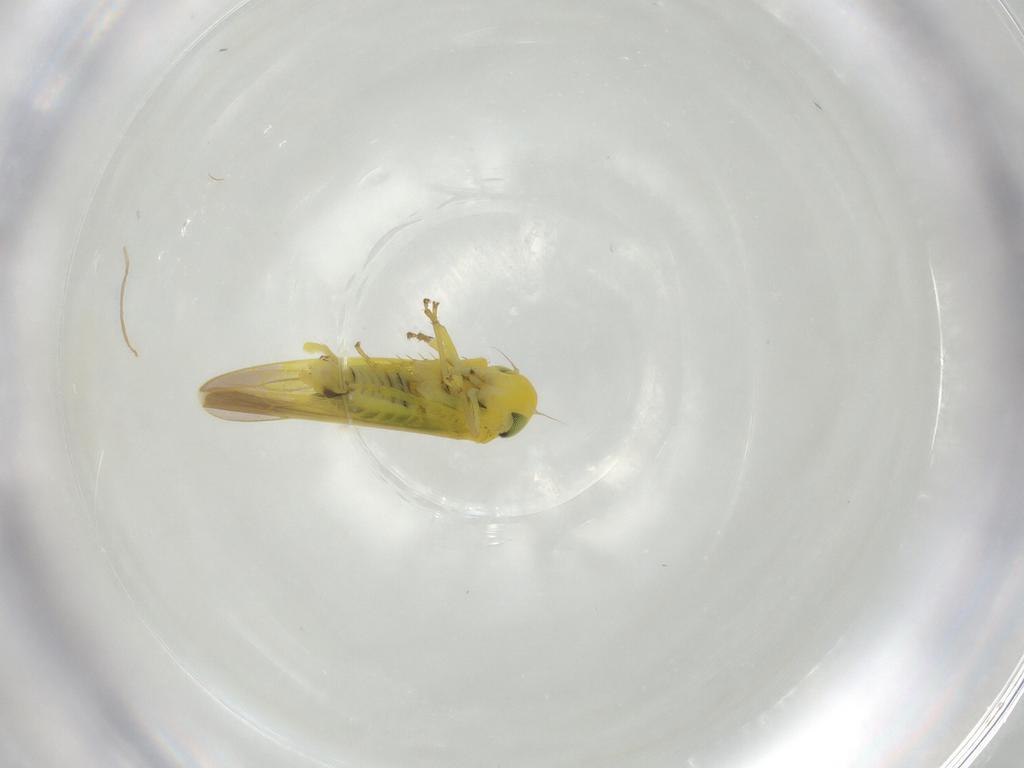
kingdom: Animalia
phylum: Arthropoda
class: Insecta
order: Hemiptera
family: Cicadellidae
